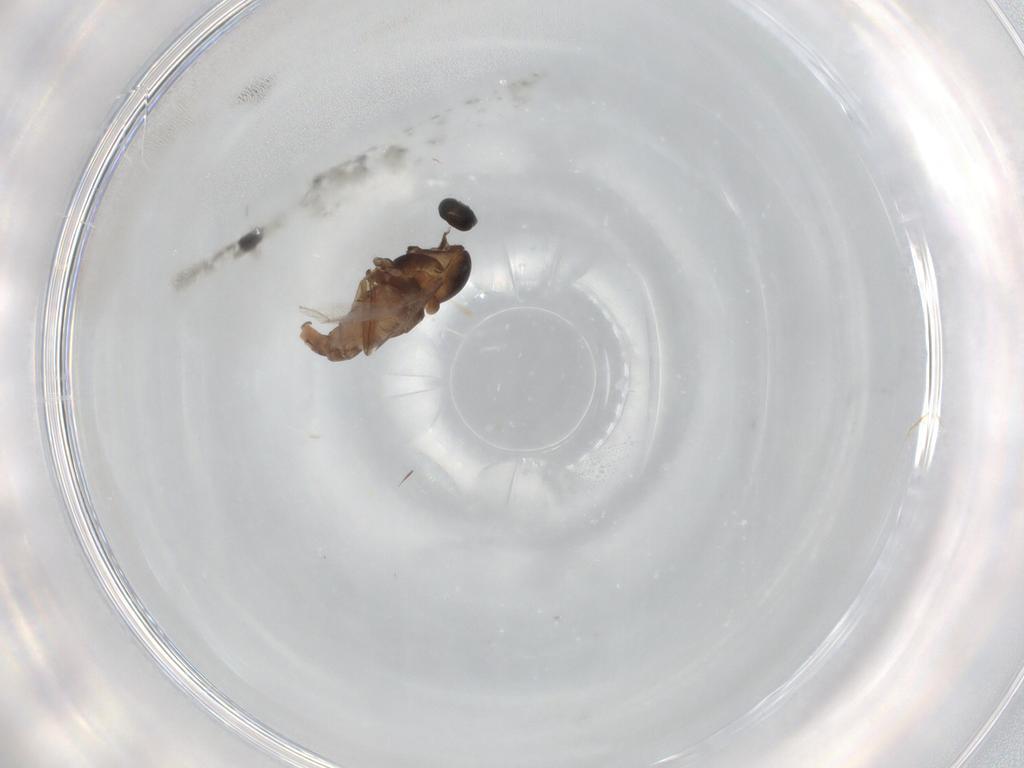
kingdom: Animalia
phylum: Arthropoda
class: Insecta
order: Diptera
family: Cecidomyiidae
